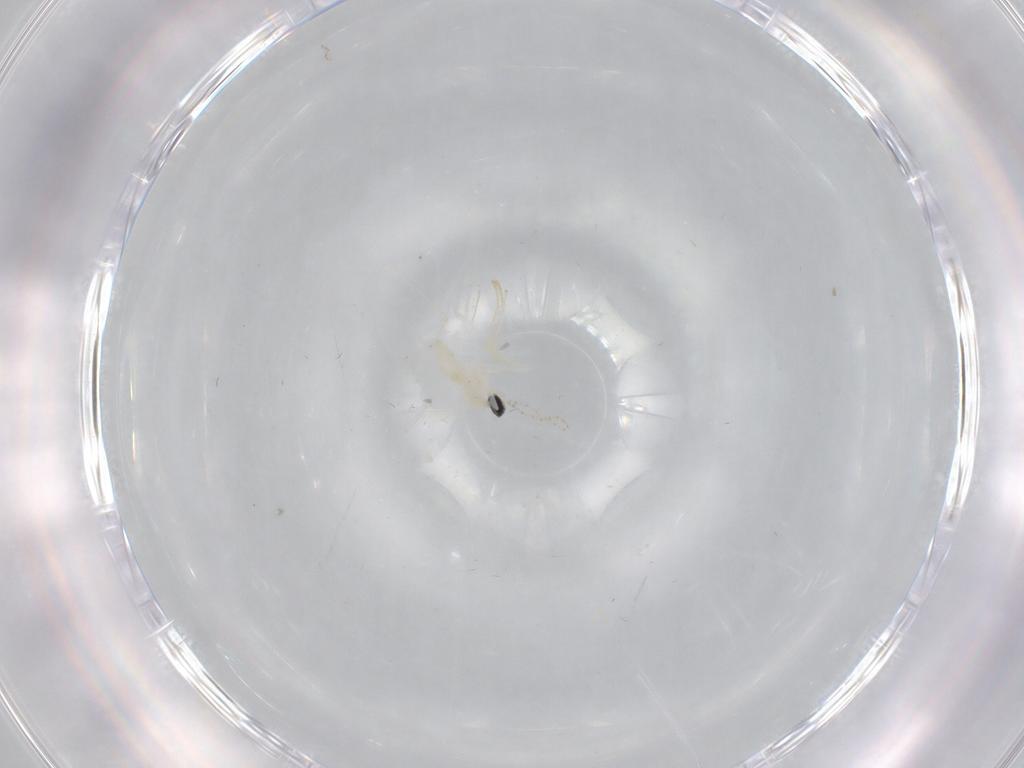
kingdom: Animalia
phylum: Arthropoda
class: Insecta
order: Diptera
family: Cecidomyiidae
